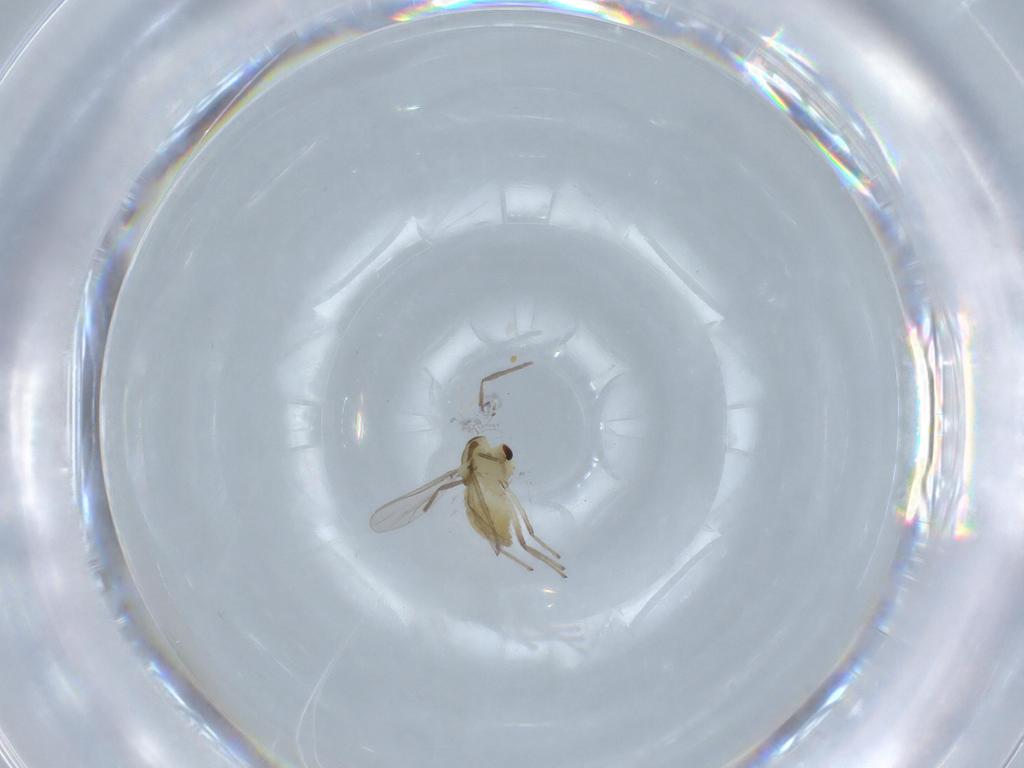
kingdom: Animalia
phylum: Arthropoda
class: Insecta
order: Diptera
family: Chironomidae
